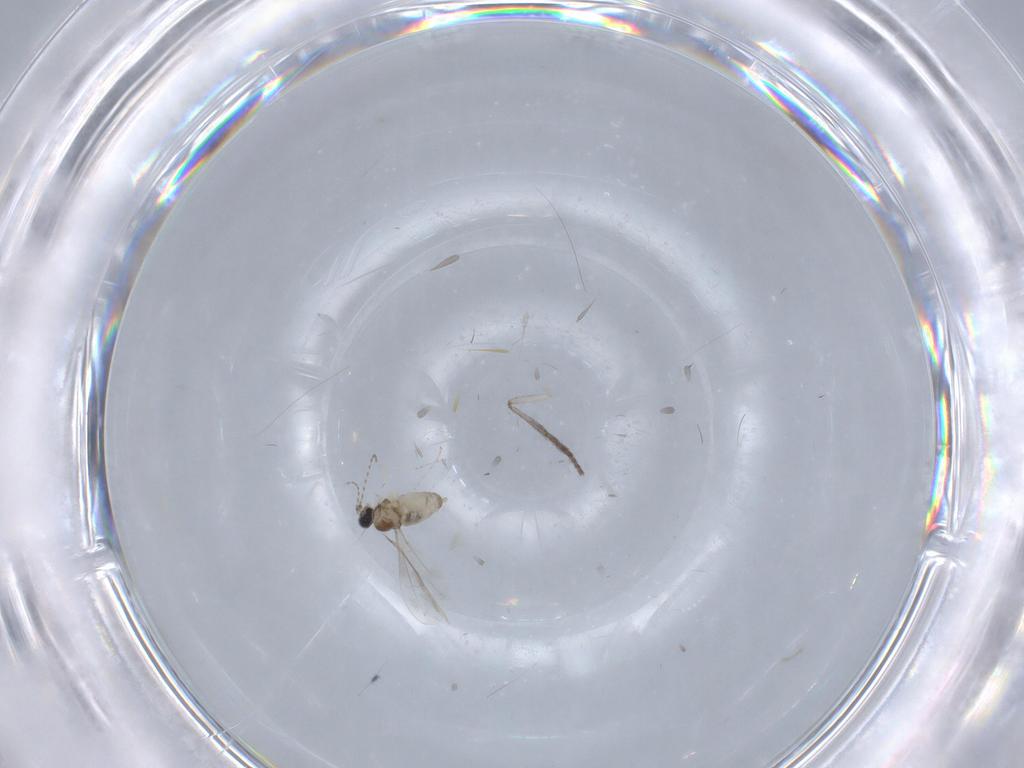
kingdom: Animalia
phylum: Arthropoda
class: Insecta
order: Diptera
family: Cecidomyiidae
